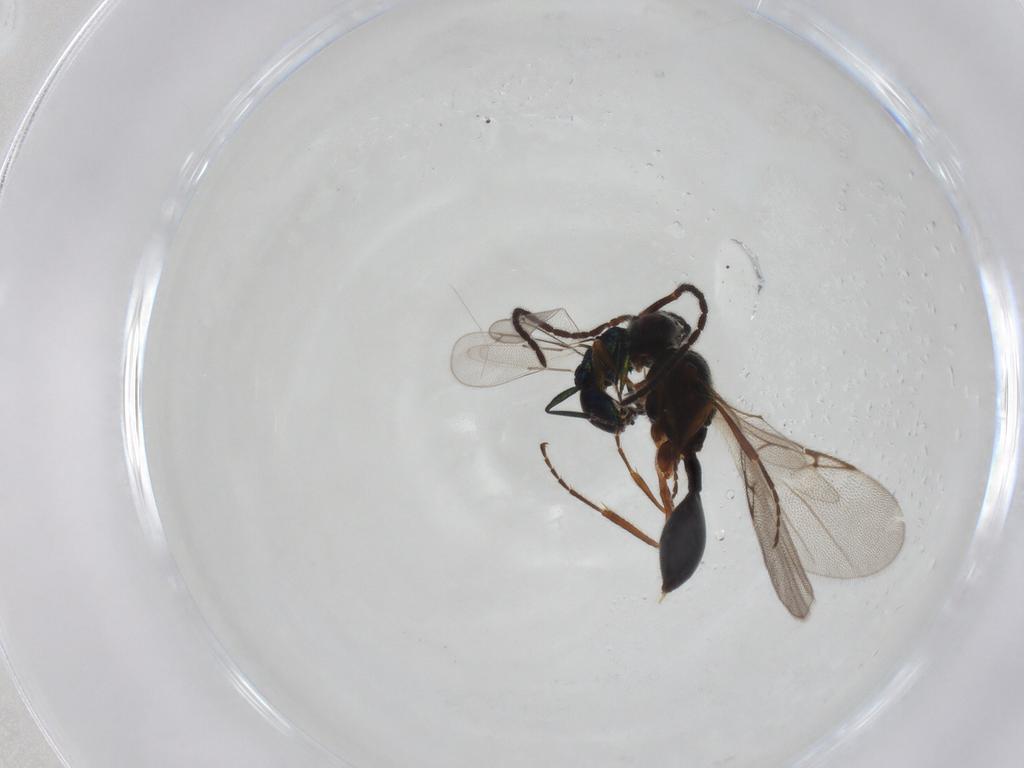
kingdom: Animalia
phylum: Arthropoda
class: Insecta
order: Hymenoptera
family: Eulophidae
